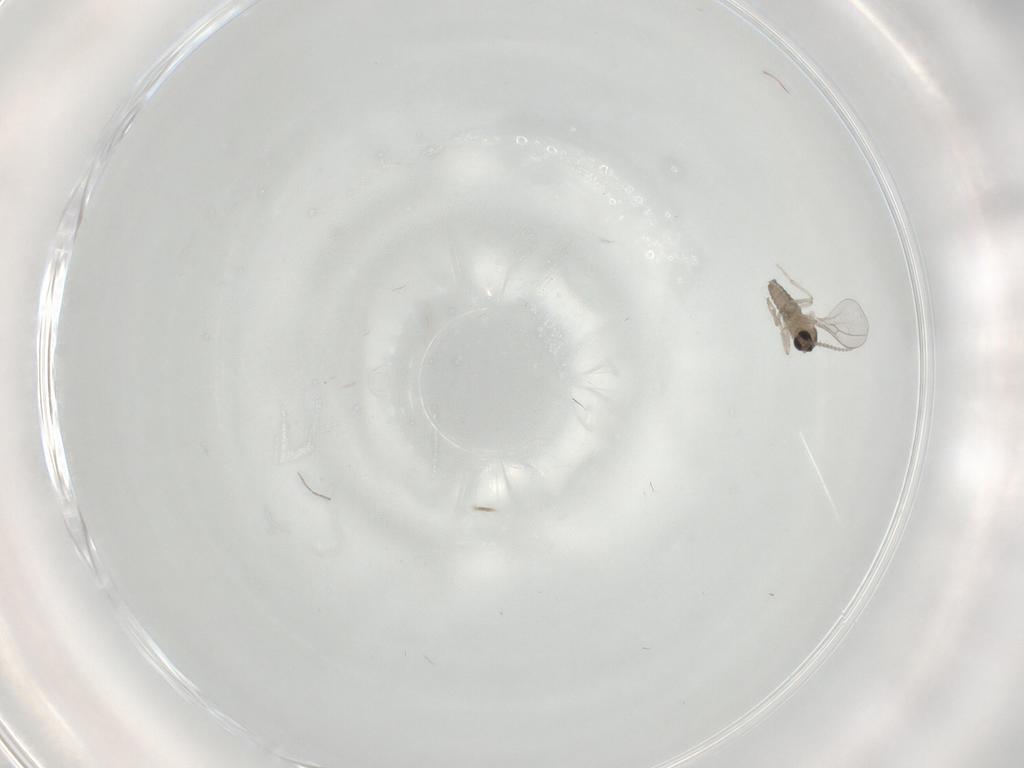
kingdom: Animalia
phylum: Arthropoda
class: Insecta
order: Diptera
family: Cecidomyiidae
